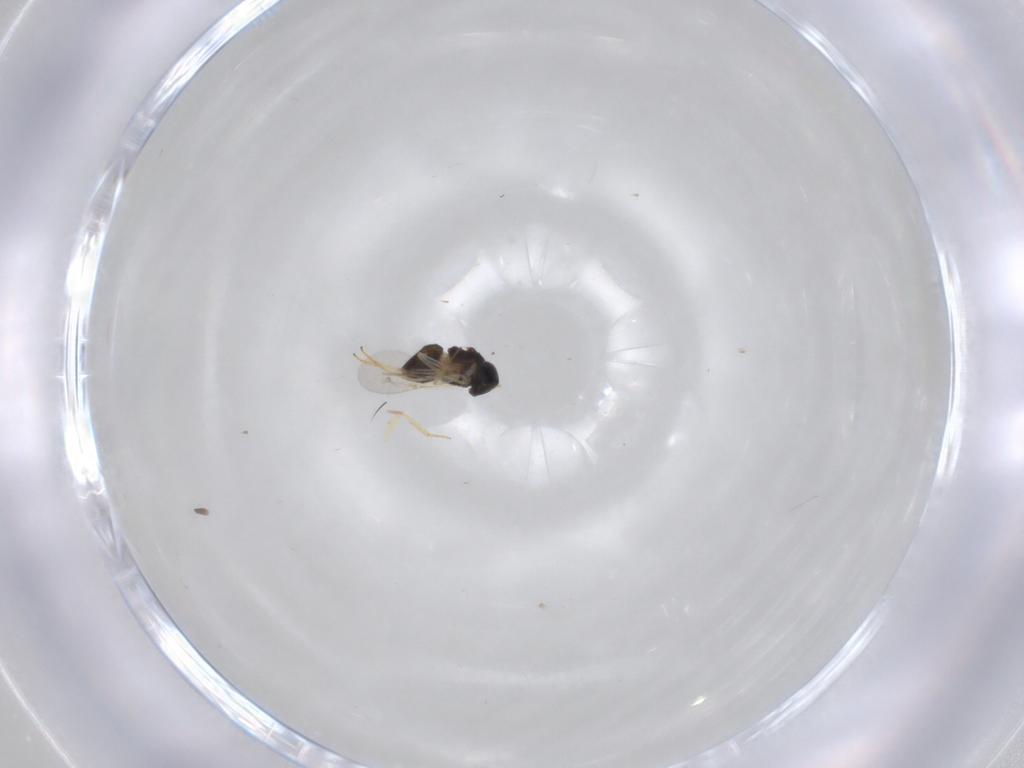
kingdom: Animalia
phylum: Arthropoda
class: Insecta
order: Diptera
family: Psychodidae
